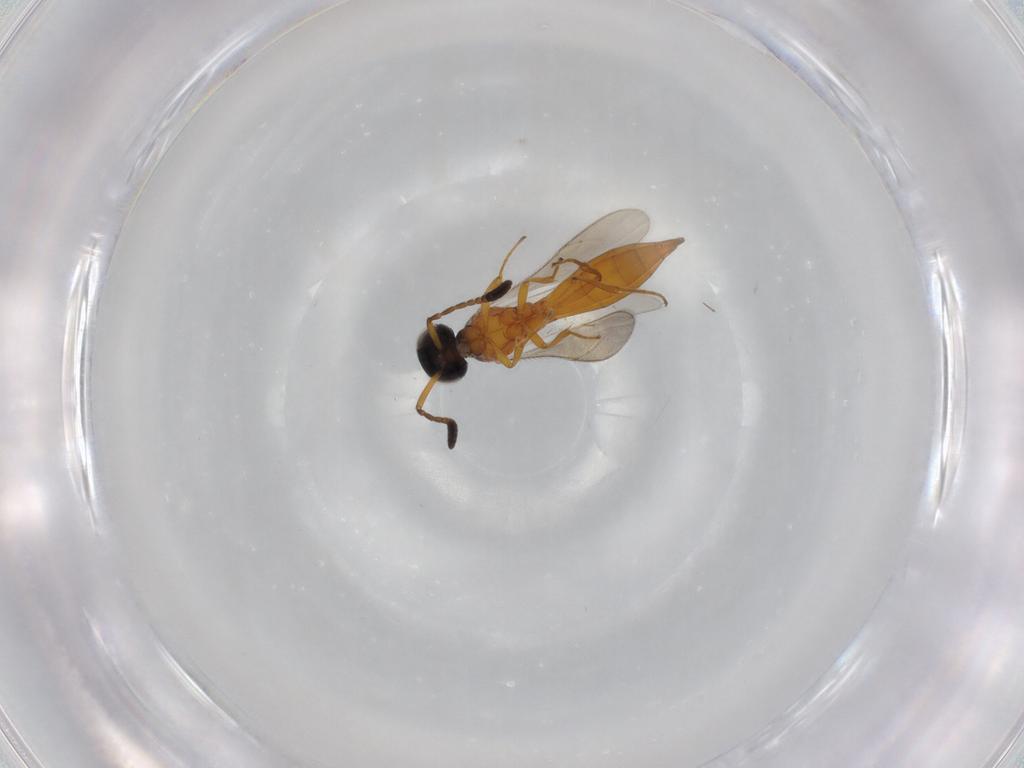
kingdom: Animalia
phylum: Arthropoda
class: Insecta
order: Hymenoptera
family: Scelionidae
